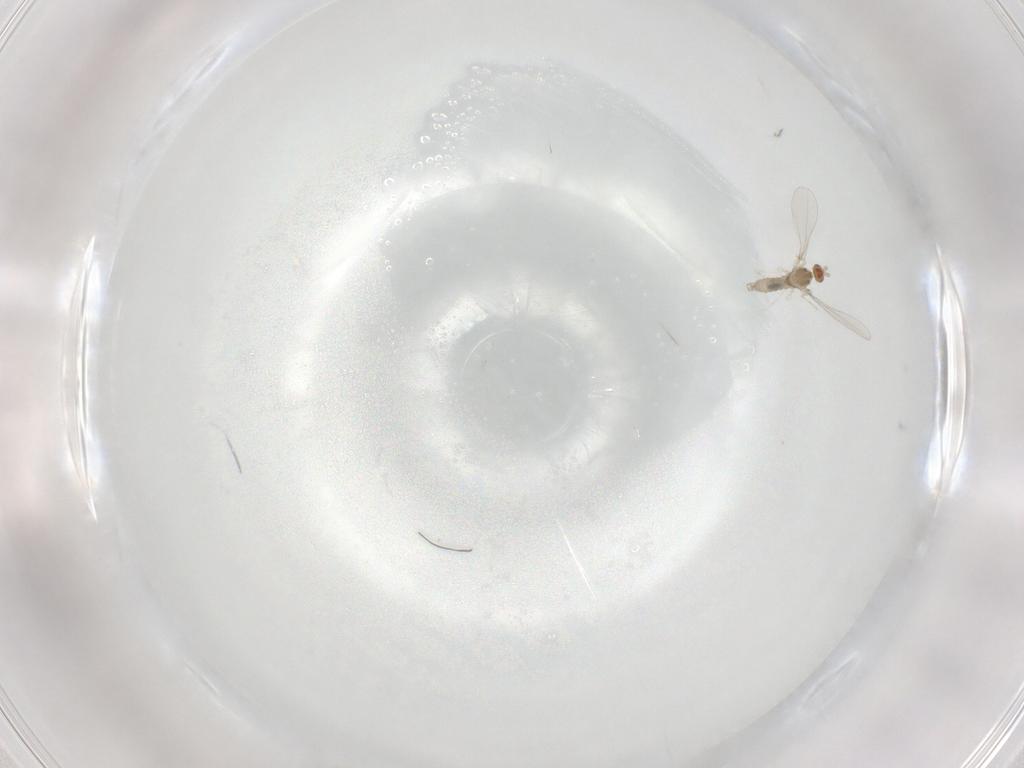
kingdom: Animalia
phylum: Arthropoda
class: Insecta
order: Diptera
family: Cecidomyiidae
